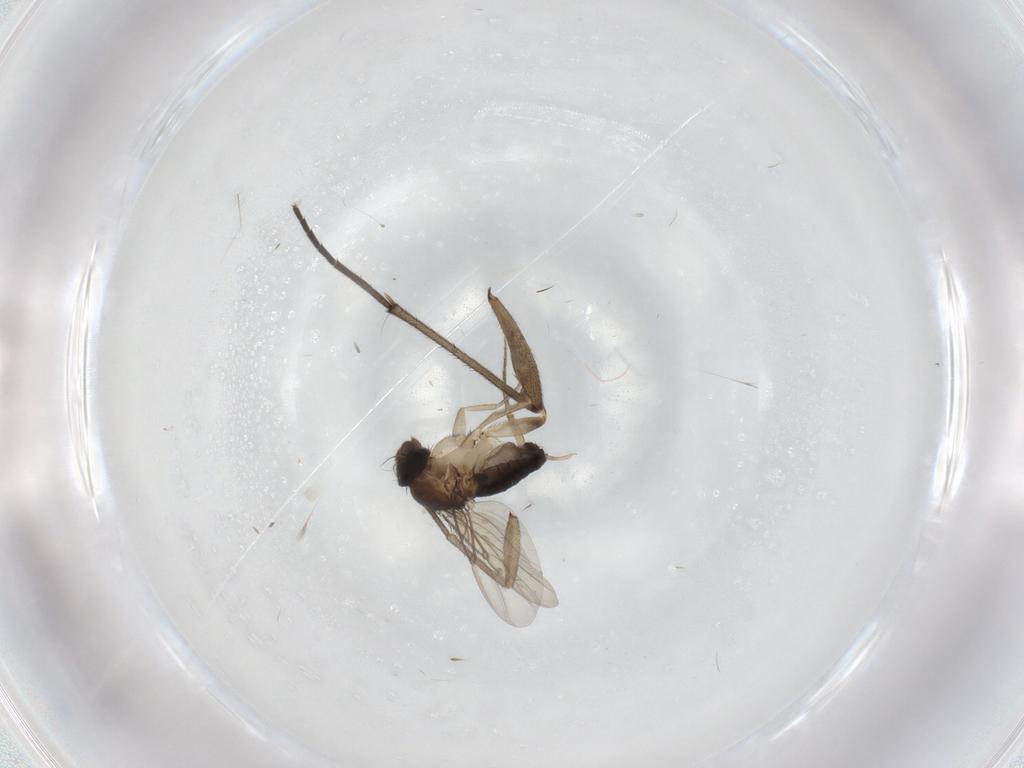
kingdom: Animalia
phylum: Arthropoda
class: Insecta
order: Diptera
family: Sciaridae
